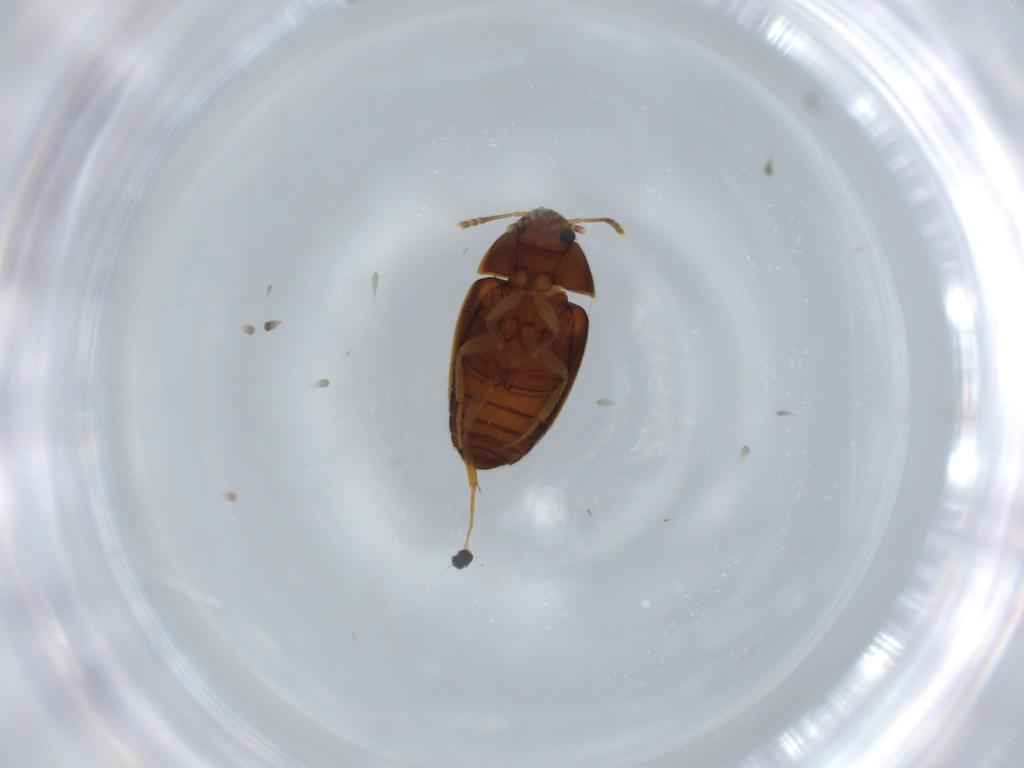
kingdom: Animalia
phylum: Arthropoda
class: Insecta
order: Coleoptera
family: Mycetophagidae
